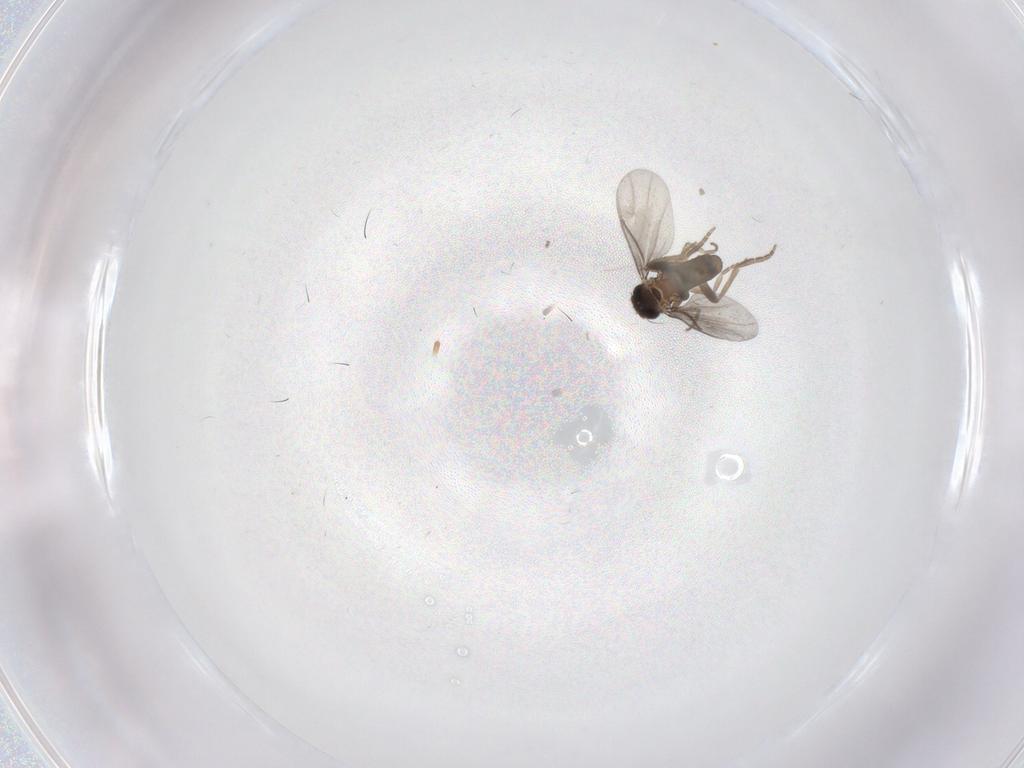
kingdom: Animalia
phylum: Arthropoda
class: Insecta
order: Diptera
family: Cecidomyiidae
